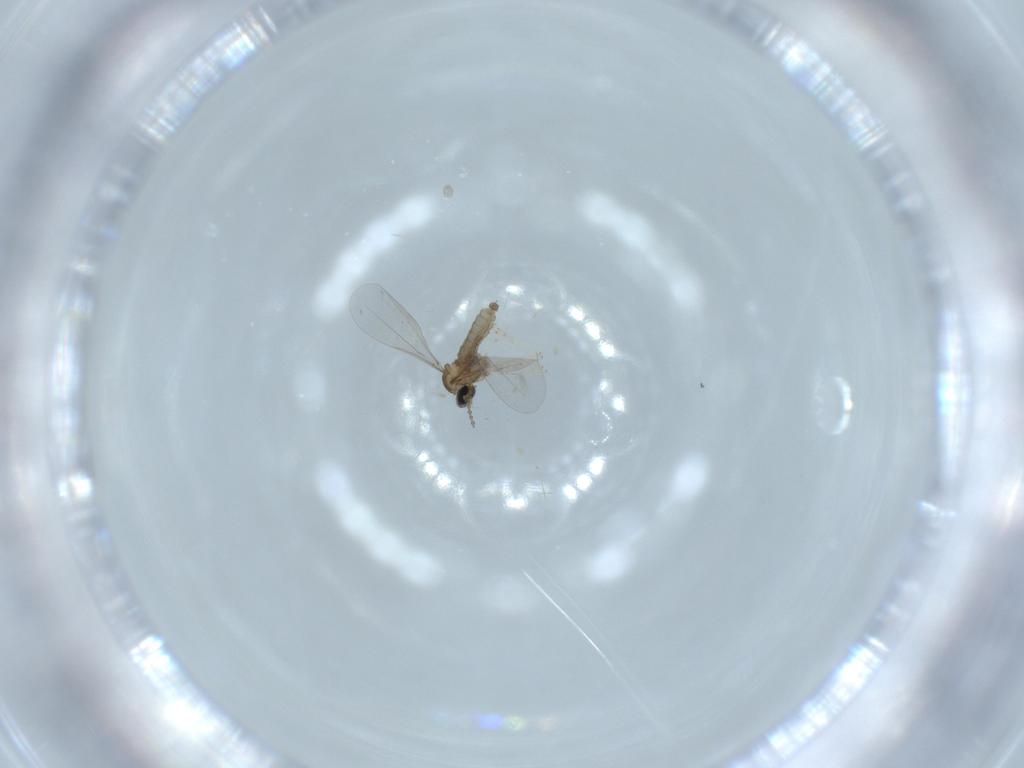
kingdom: Animalia
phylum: Arthropoda
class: Insecta
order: Diptera
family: Cecidomyiidae
